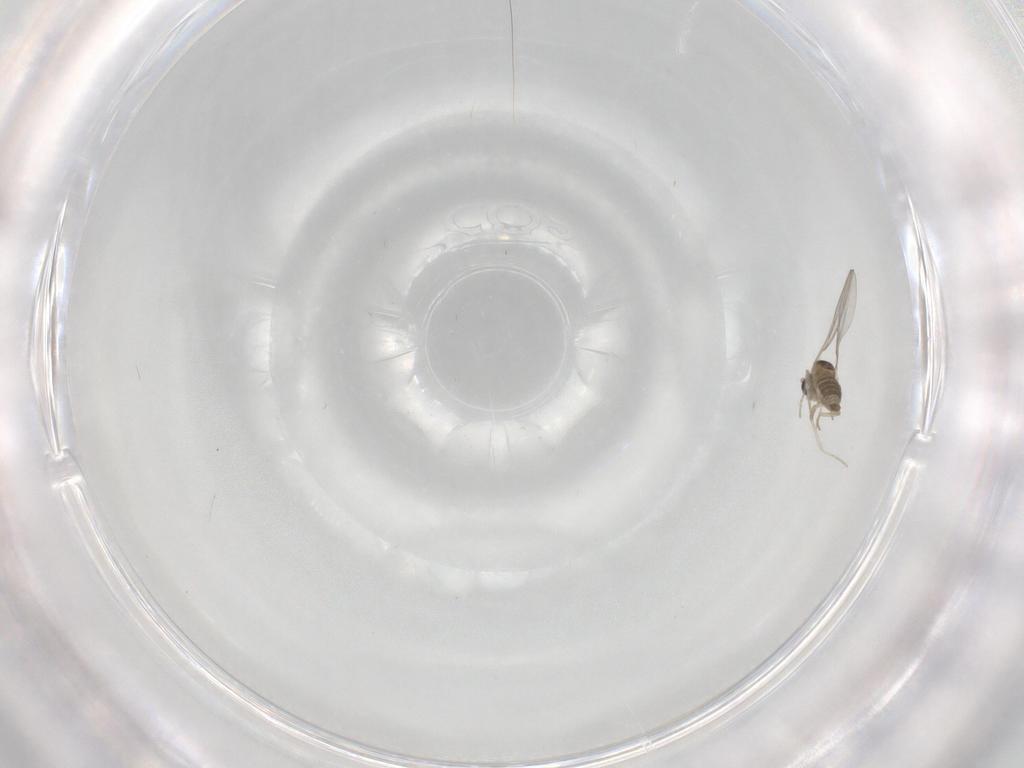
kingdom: Animalia
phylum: Arthropoda
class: Insecta
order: Diptera
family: Cecidomyiidae
